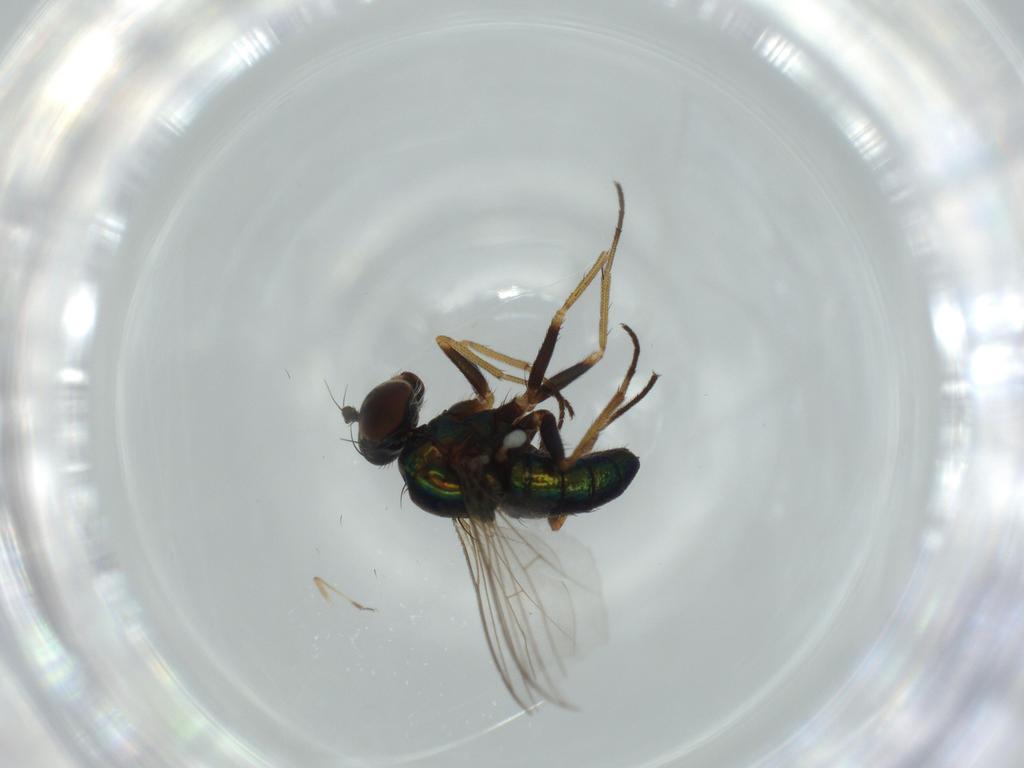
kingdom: Animalia
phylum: Arthropoda
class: Insecta
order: Diptera
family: Dolichopodidae
